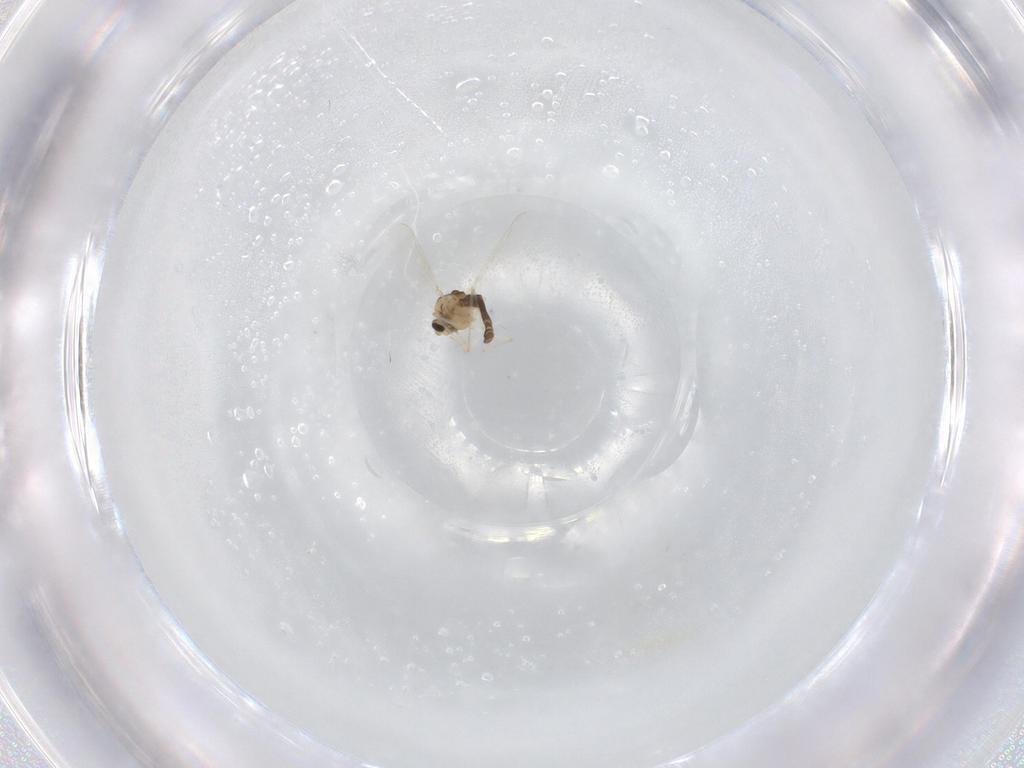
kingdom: Animalia
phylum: Arthropoda
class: Insecta
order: Diptera
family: Chironomidae
